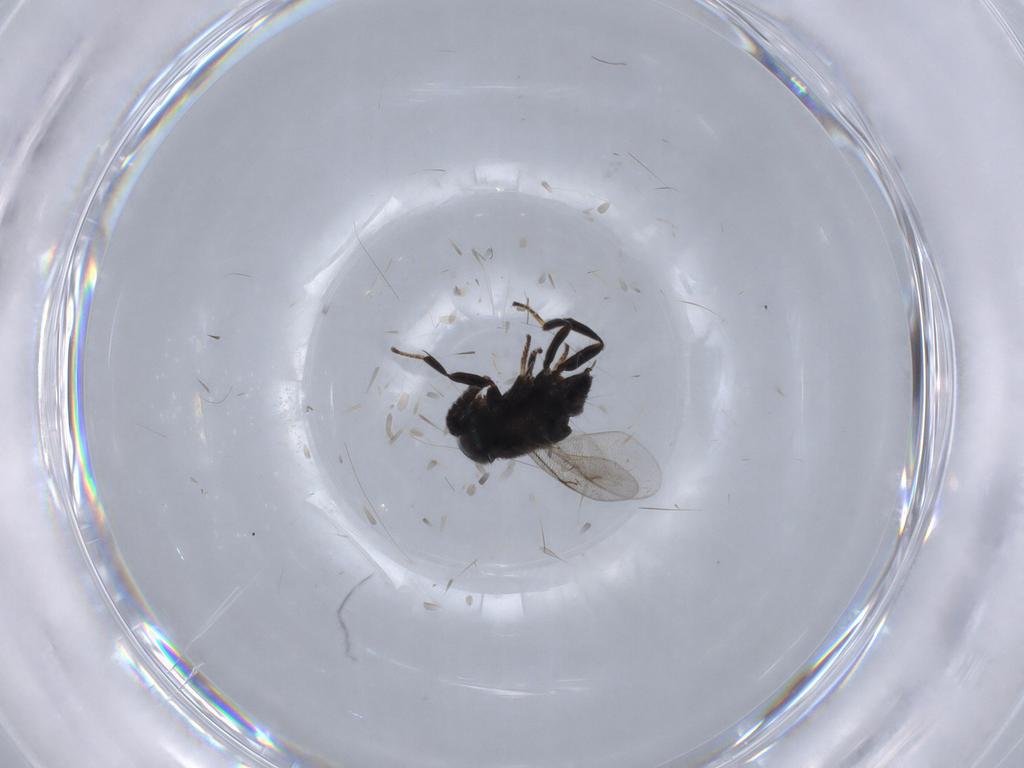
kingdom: Animalia
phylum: Arthropoda
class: Insecta
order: Hymenoptera
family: Encyrtidae
